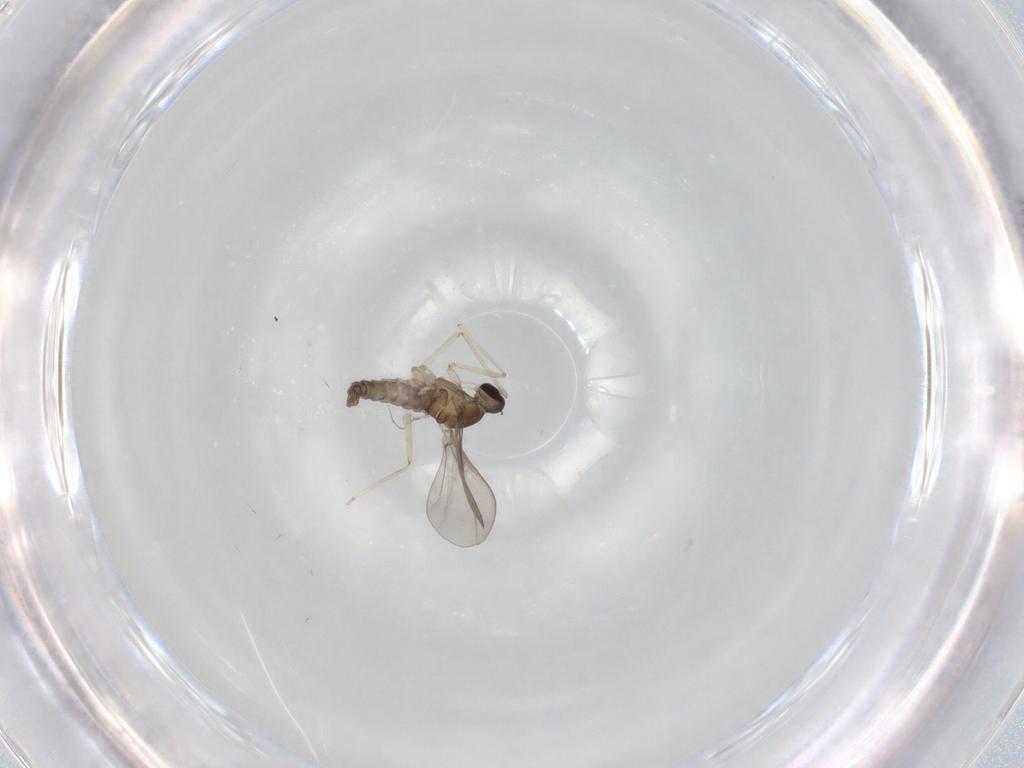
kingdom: Animalia
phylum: Arthropoda
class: Insecta
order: Diptera
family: Cecidomyiidae
